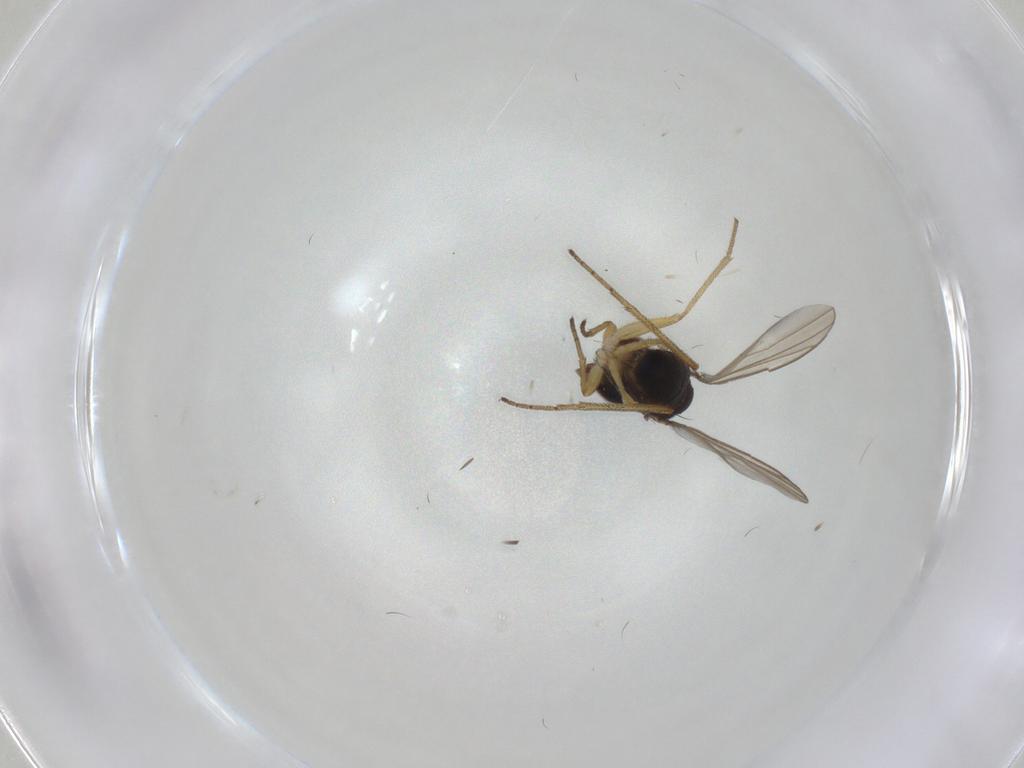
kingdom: Animalia
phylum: Arthropoda
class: Insecta
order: Diptera
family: Dolichopodidae
